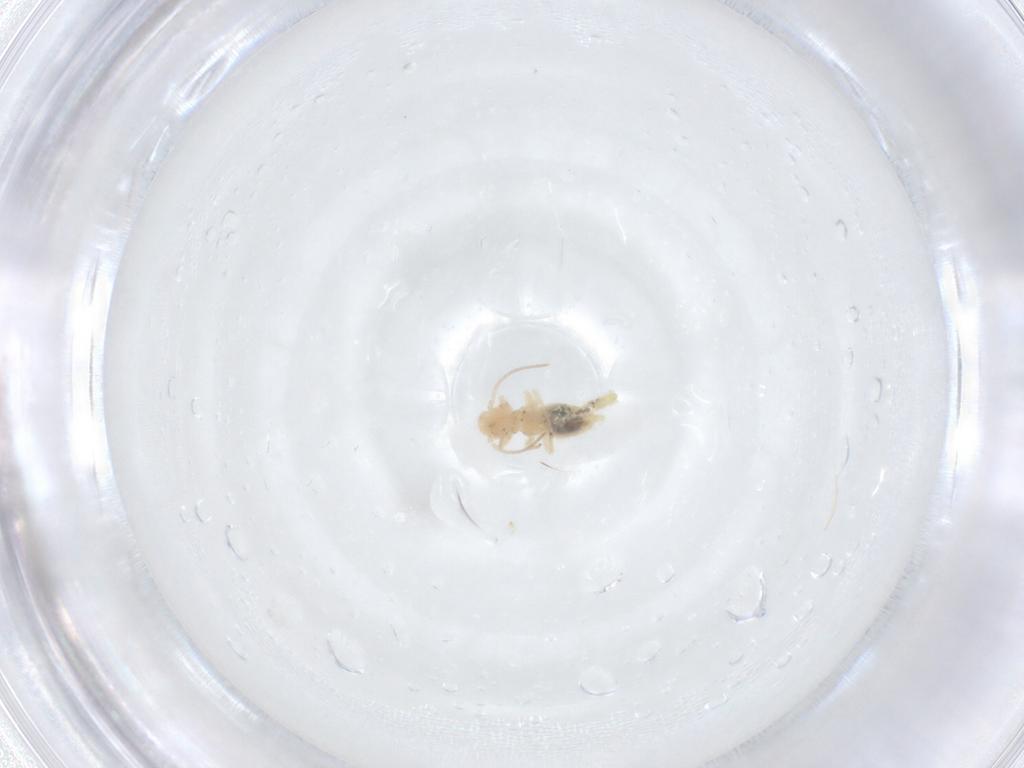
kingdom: Animalia
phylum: Arthropoda
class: Insecta
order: Psocodea
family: Caeciliusidae
